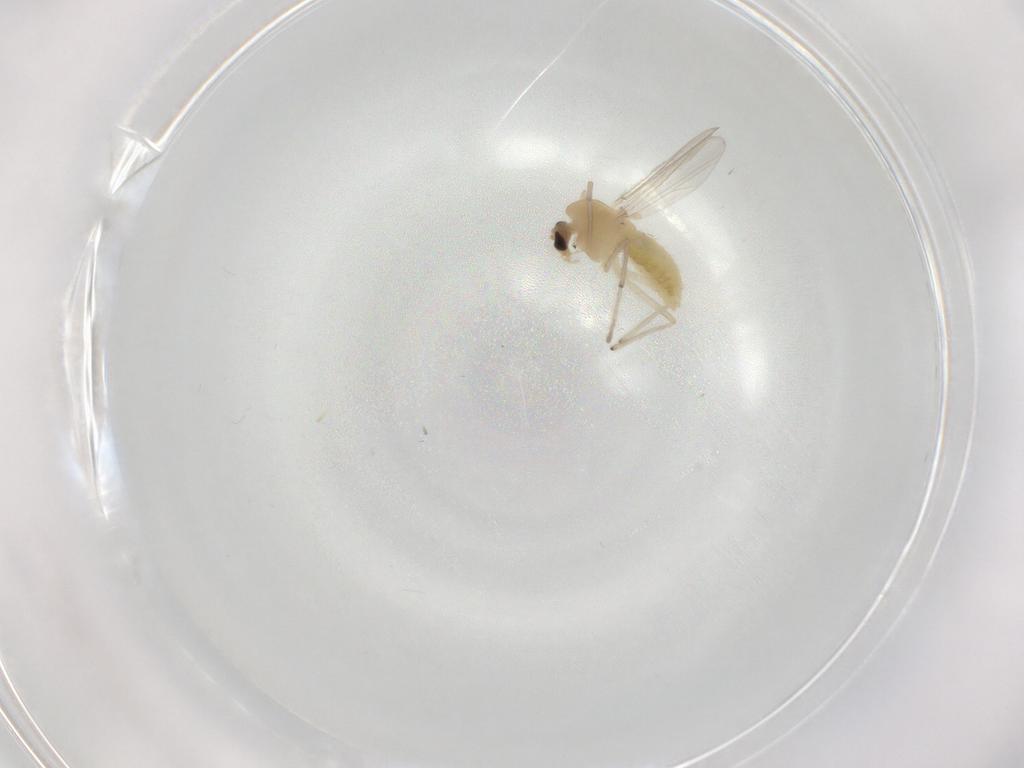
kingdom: Animalia
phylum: Arthropoda
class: Insecta
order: Diptera
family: Chironomidae
